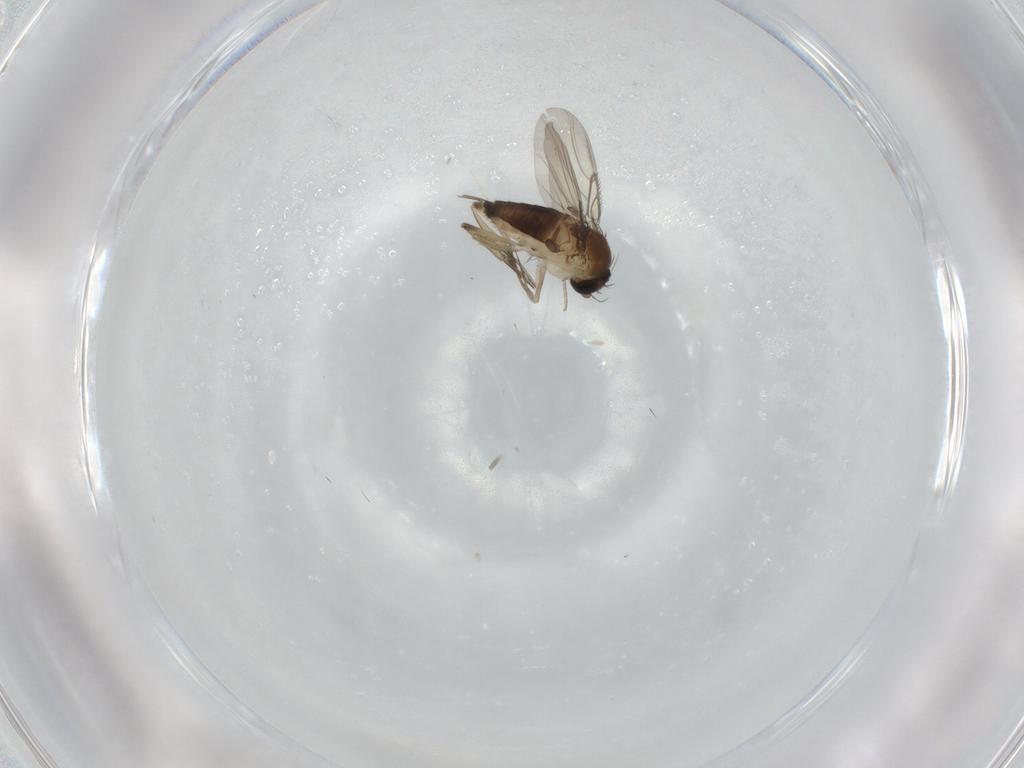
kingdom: Animalia
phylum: Arthropoda
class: Insecta
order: Diptera
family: Phoridae
